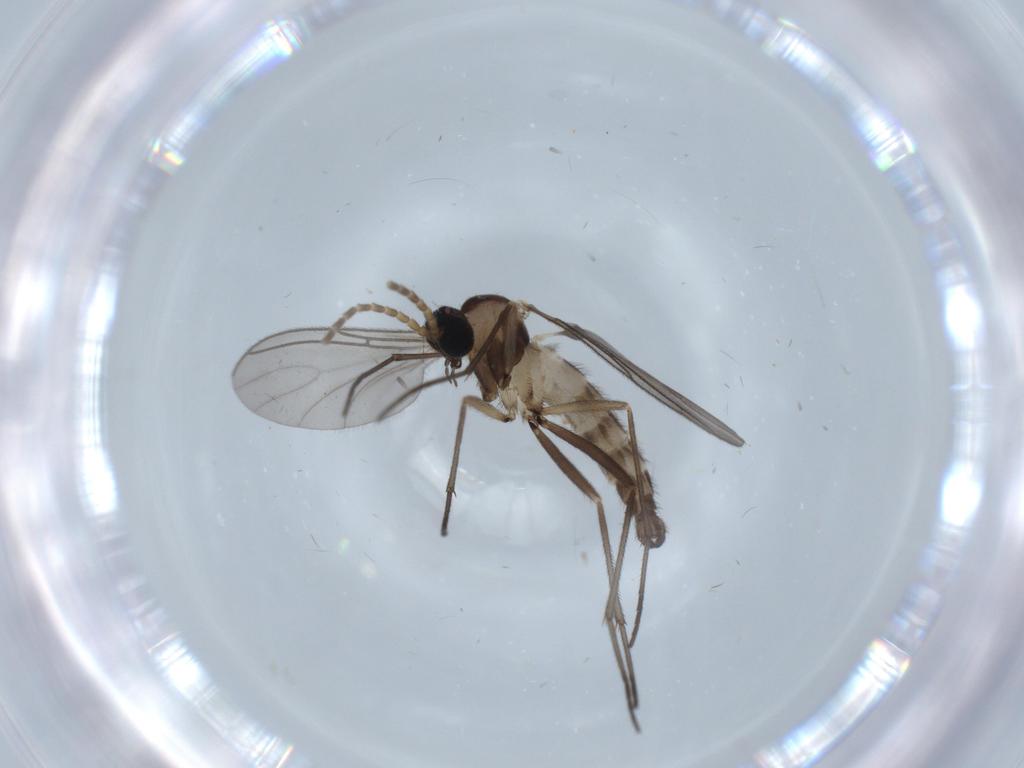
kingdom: Animalia
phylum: Arthropoda
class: Insecta
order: Diptera
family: Sciaridae
